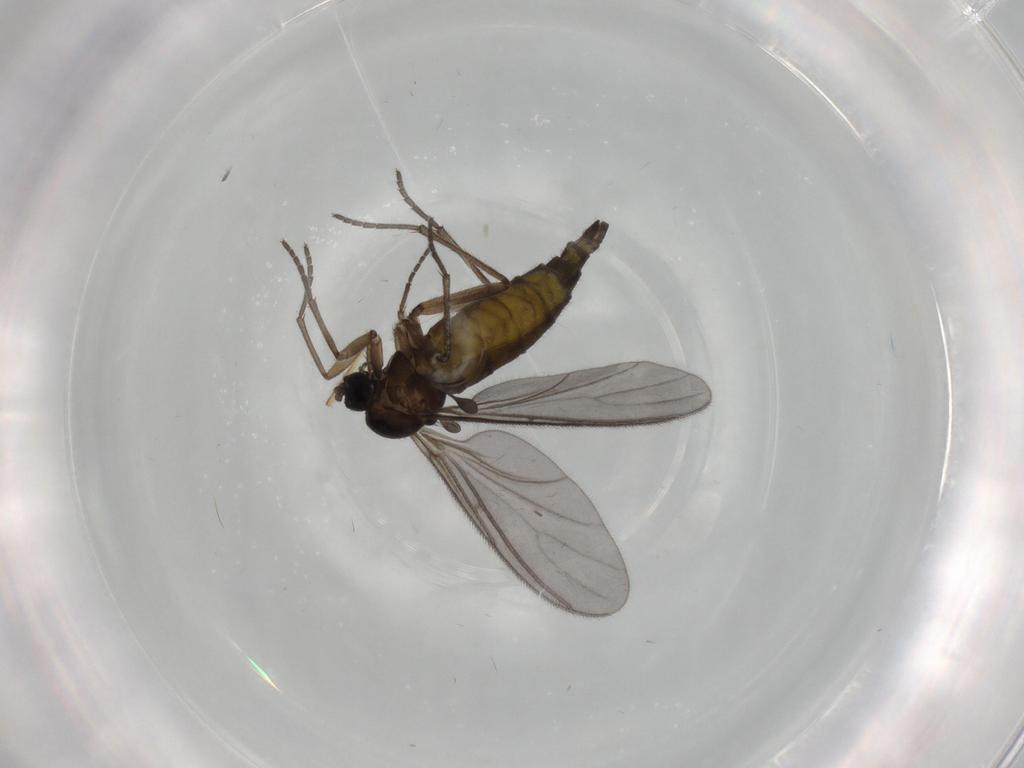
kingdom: Animalia
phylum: Arthropoda
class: Insecta
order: Diptera
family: Sciaridae
